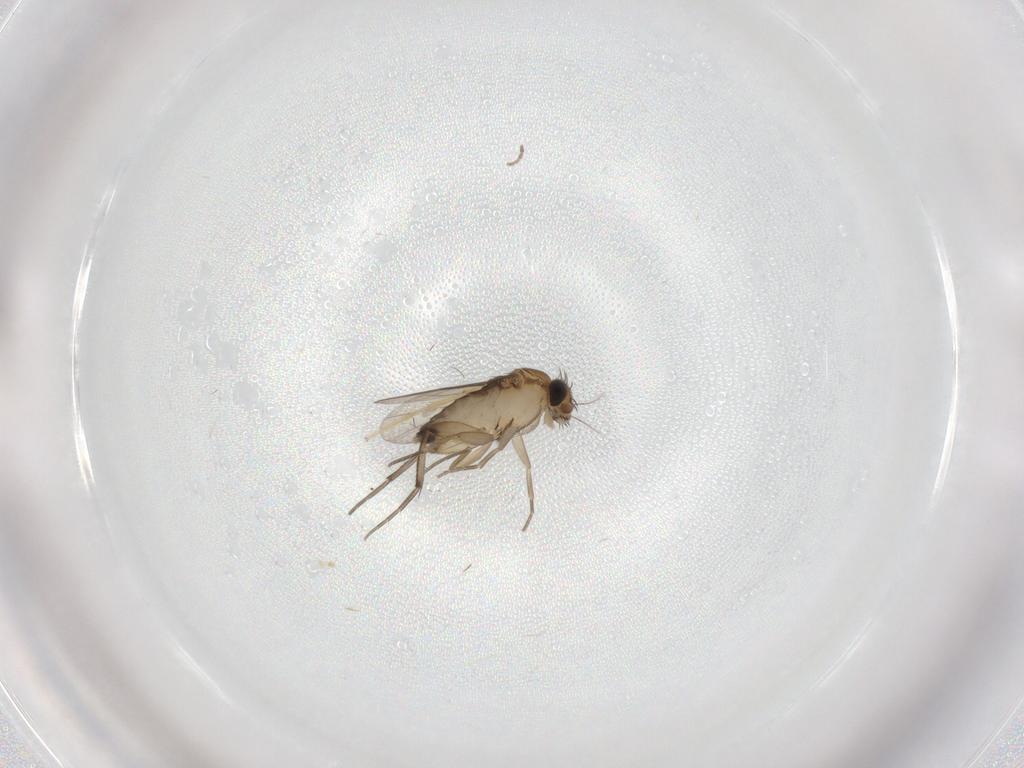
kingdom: Animalia
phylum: Arthropoda
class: Insecta
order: Diptera
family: Phoridae
